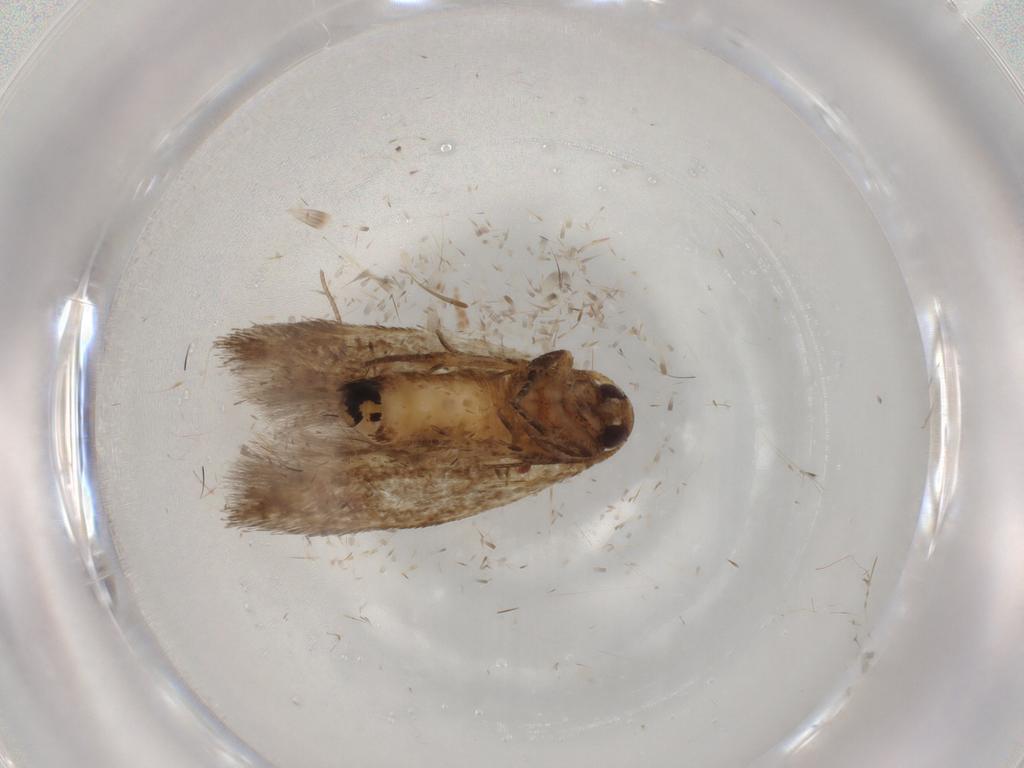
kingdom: Animalia
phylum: Arthropoda
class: Insecta
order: Lepidoptera
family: Cosmopterigidae
